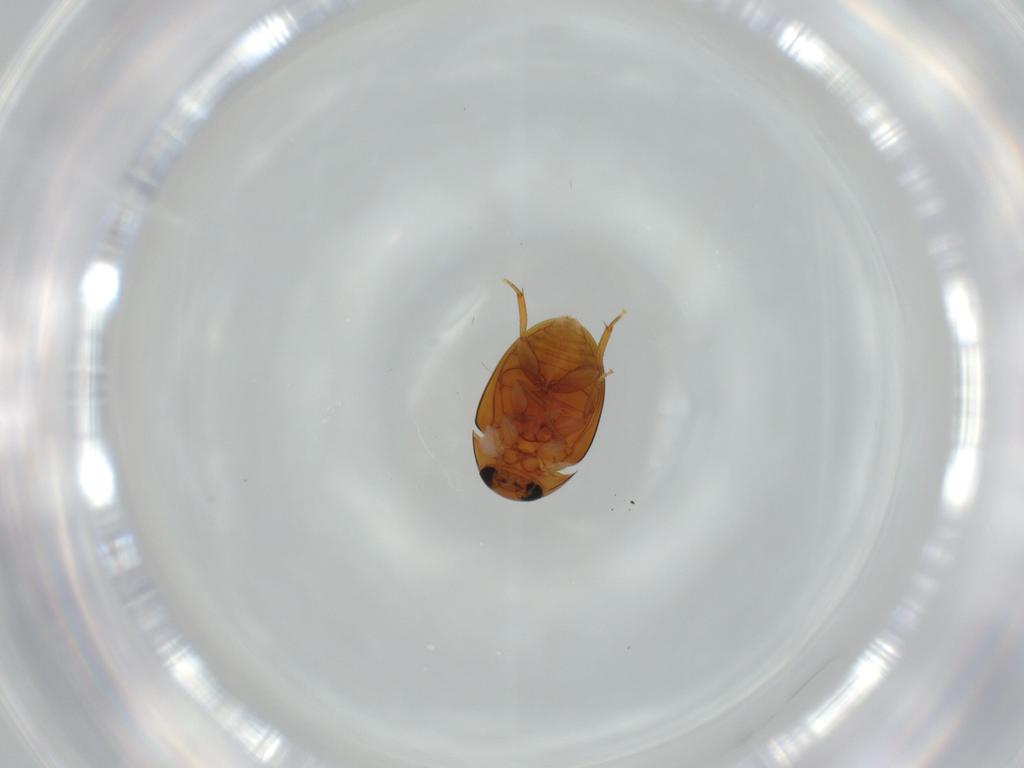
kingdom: Animalia
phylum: Arthropoda
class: Insecta
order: Coleoptera
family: Phalacridae
